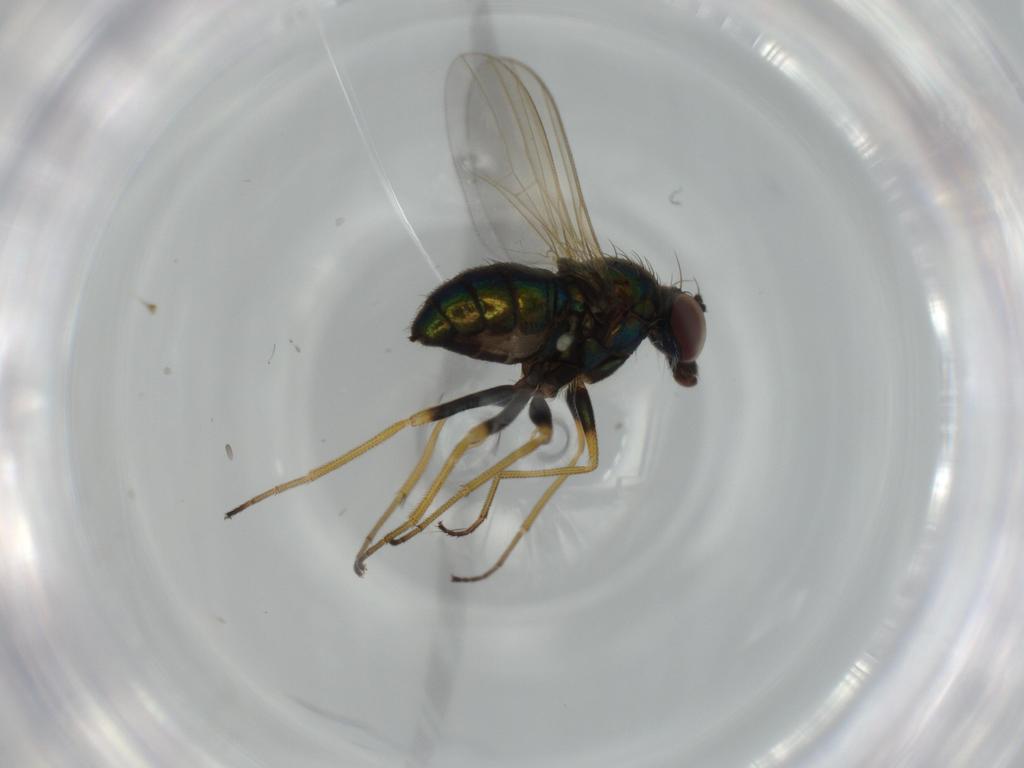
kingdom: Animalia
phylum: Arthropoda
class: Insecta
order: Diptera
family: Dolichopodidae
